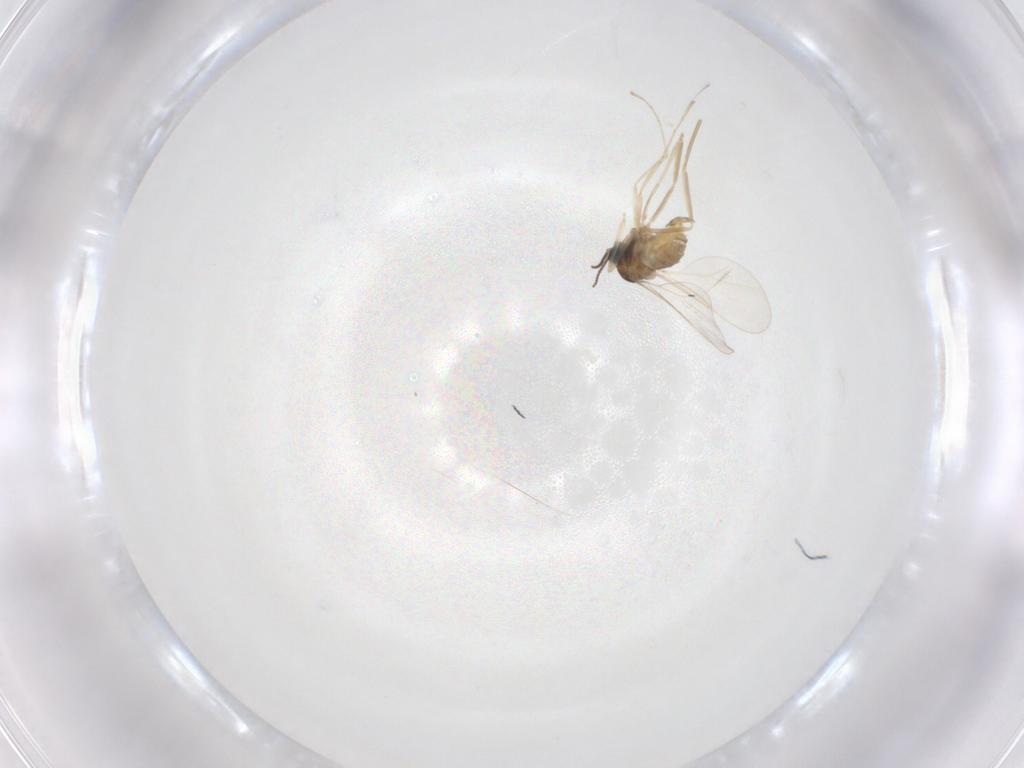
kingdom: Animalia
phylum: Arthropoda
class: Insecta
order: Diptera
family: Cecidomyiidae
